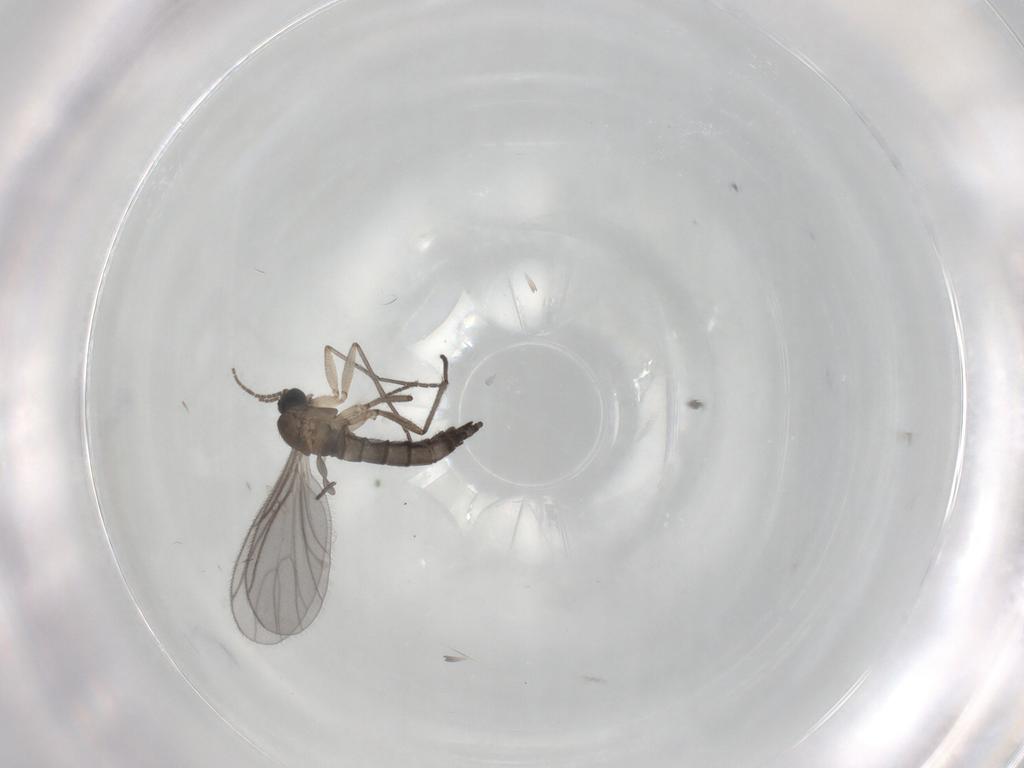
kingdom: Animalia
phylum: Arthropoda
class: Insecta
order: Diptera
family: Sciaridae
